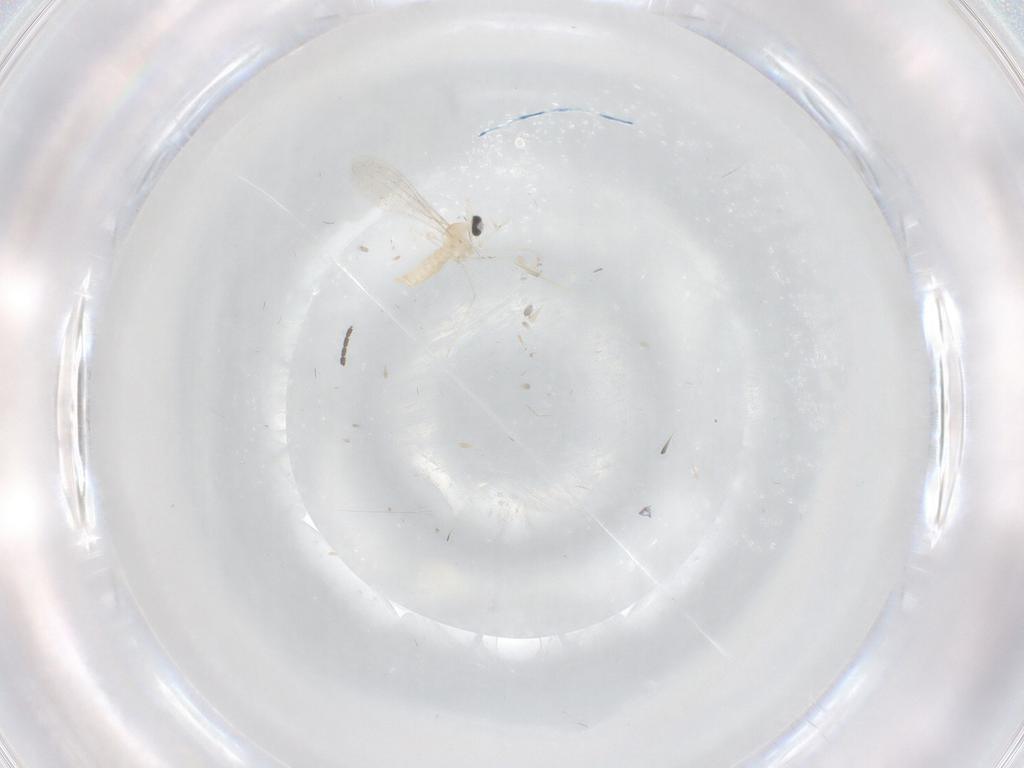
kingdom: Animalia
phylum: Arthropoda
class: Insecta
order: Diptera
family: Cecidomyiidae
